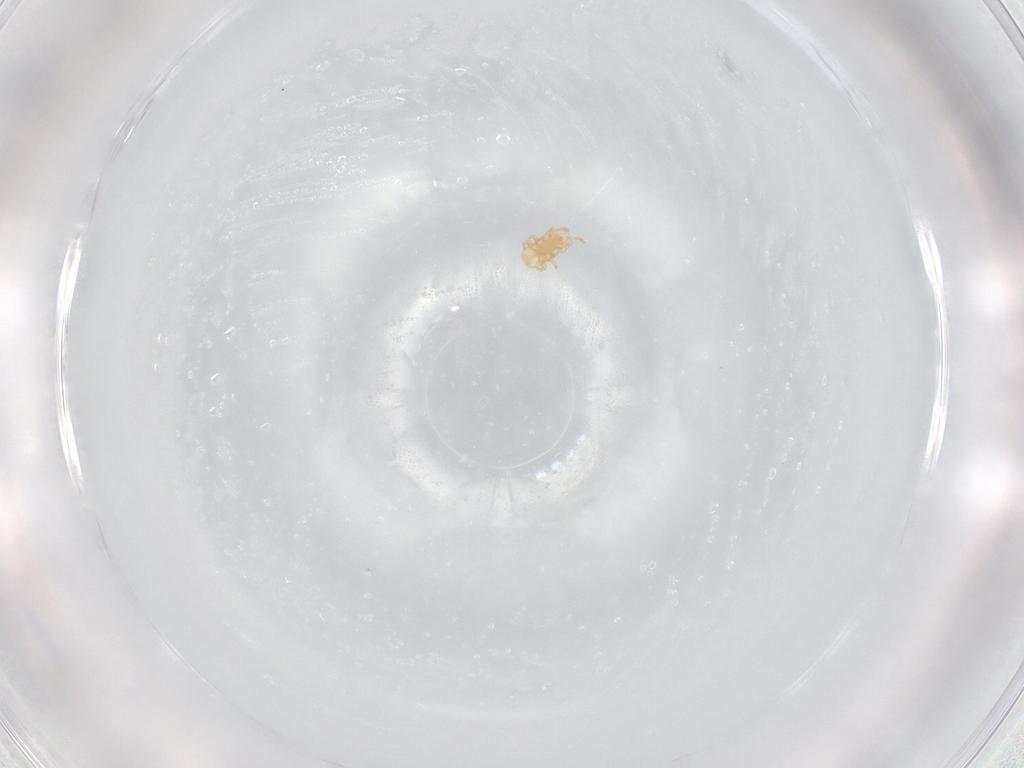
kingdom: Animalia
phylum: Arthropoda
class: Arachnida
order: Mesostigmata
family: Digamasellidae
